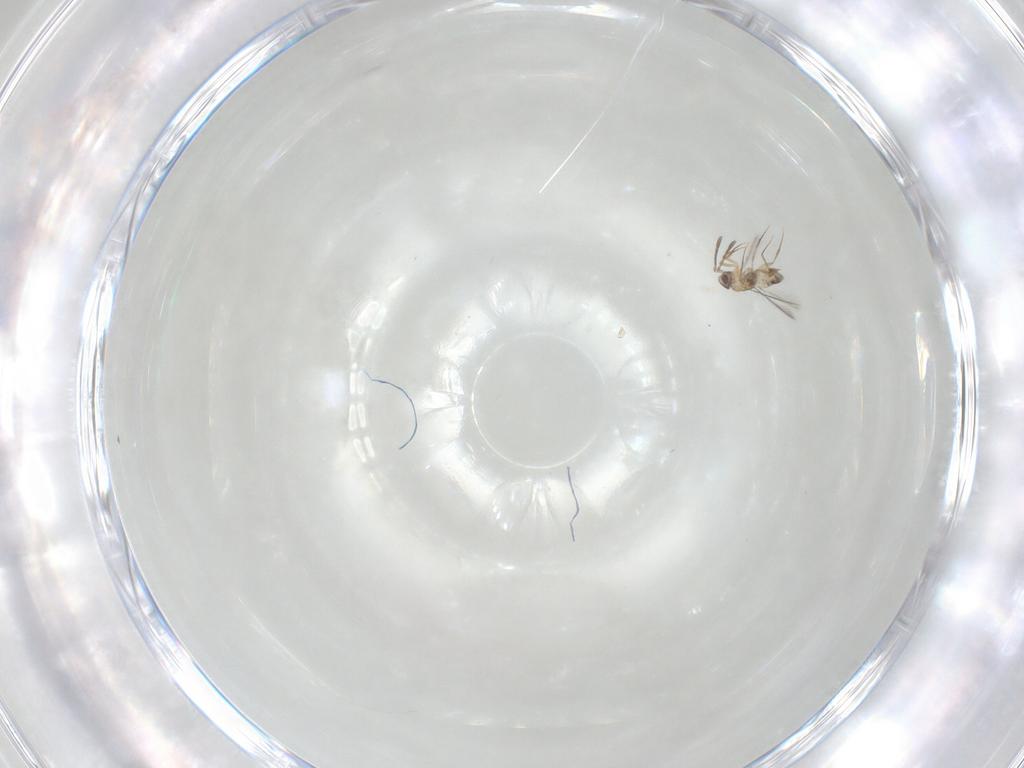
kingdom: Animalia
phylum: Arthropoda
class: Insecta
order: Hymenoptera
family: Mymaridae
